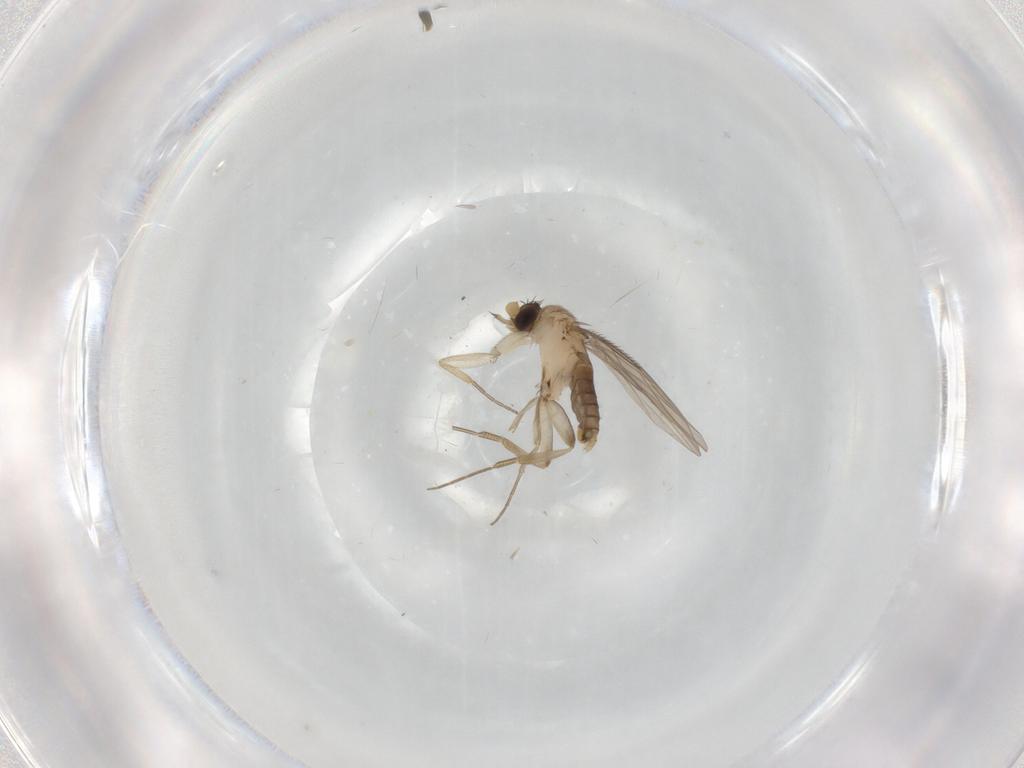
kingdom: Animalia
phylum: Arthropoda
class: Insecta
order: Diptera
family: Phoridae
